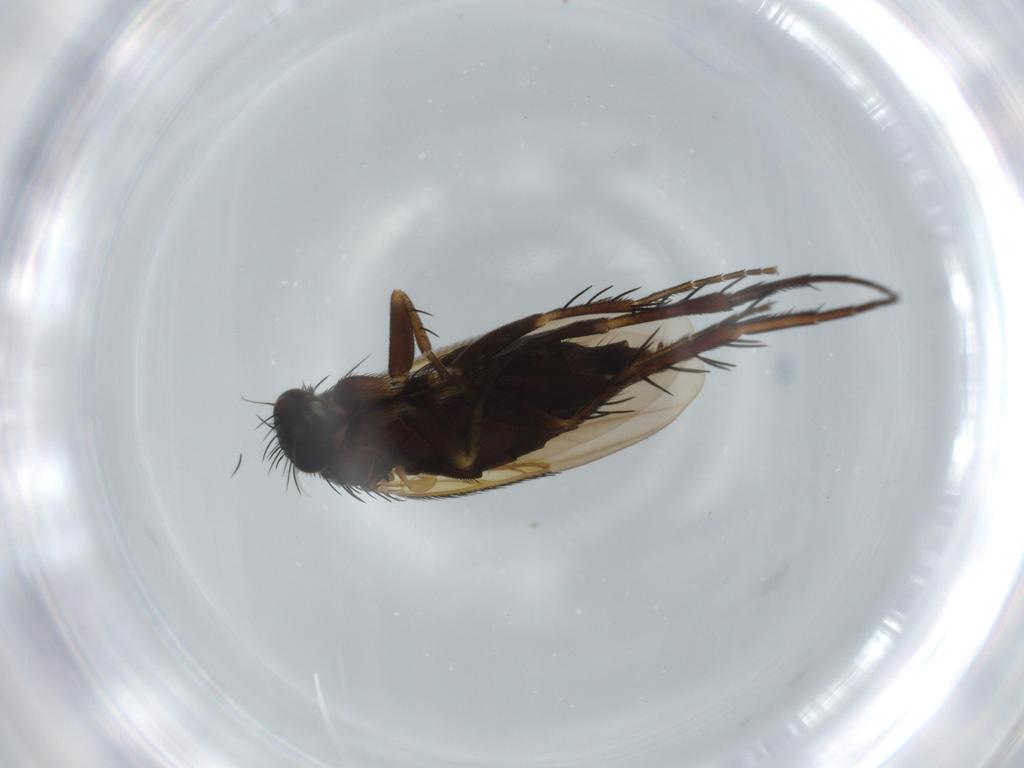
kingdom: Animalia
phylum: Arthropoda
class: Insecta
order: Diptera
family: Phoridae
